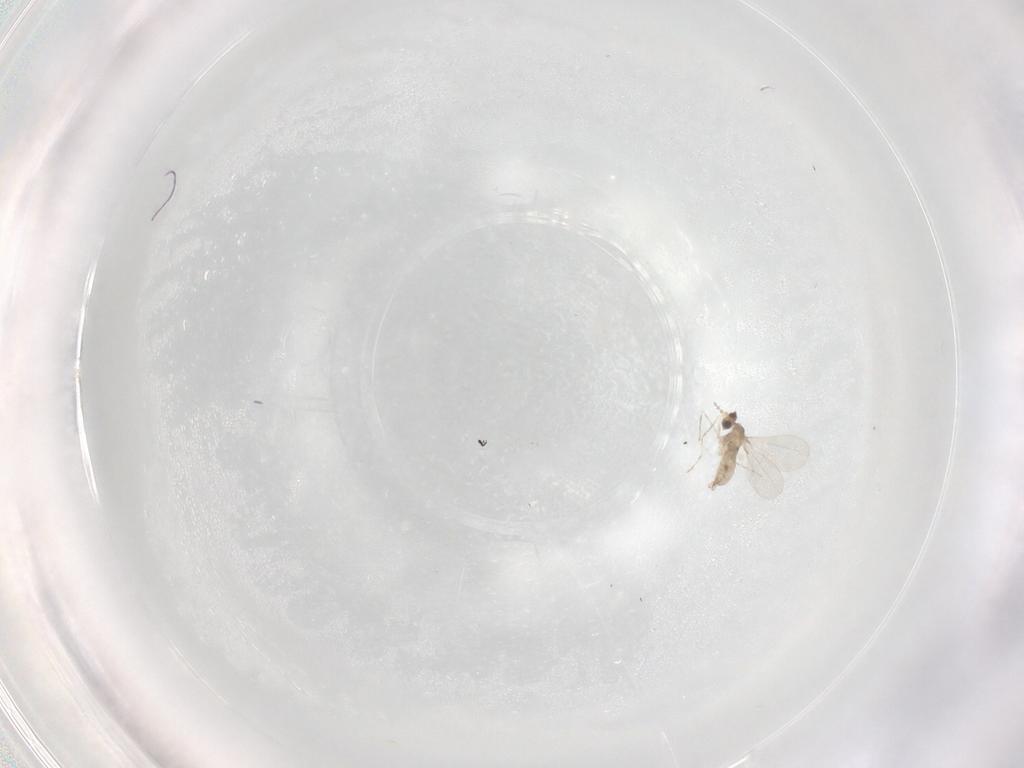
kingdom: Animalia
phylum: Arthropoda
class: Insecta
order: Diptera
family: Cecidomyiidae
